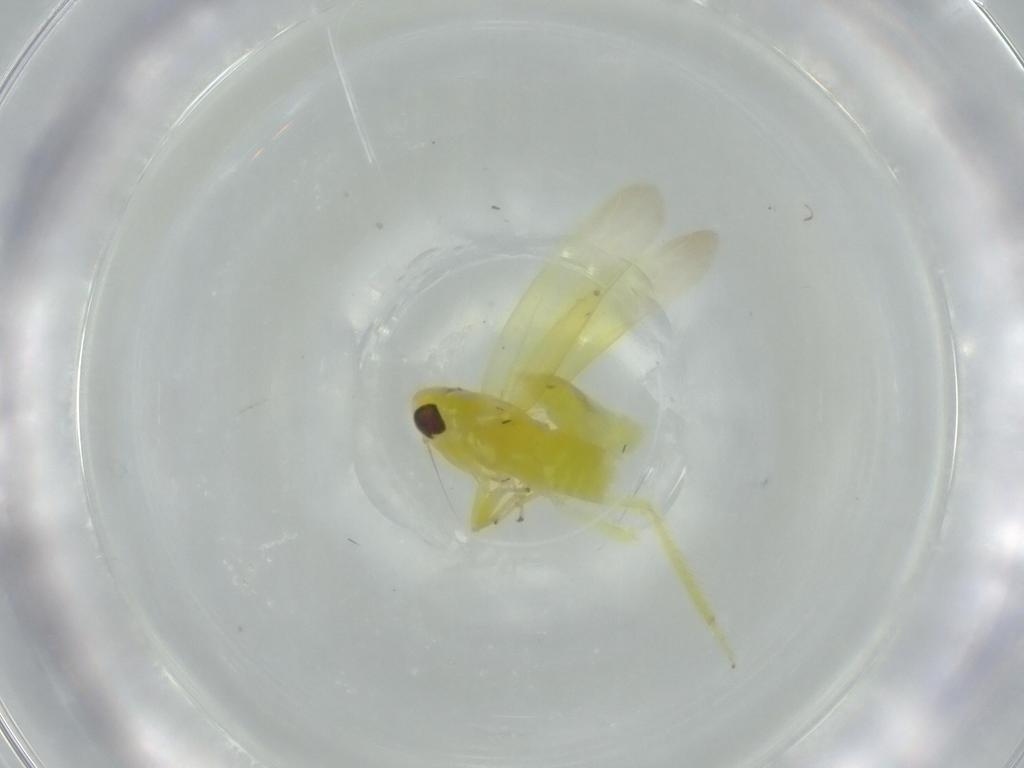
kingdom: Animalia
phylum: Arthropoda
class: Insecta
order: Hemiptera
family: Cicadellidae
